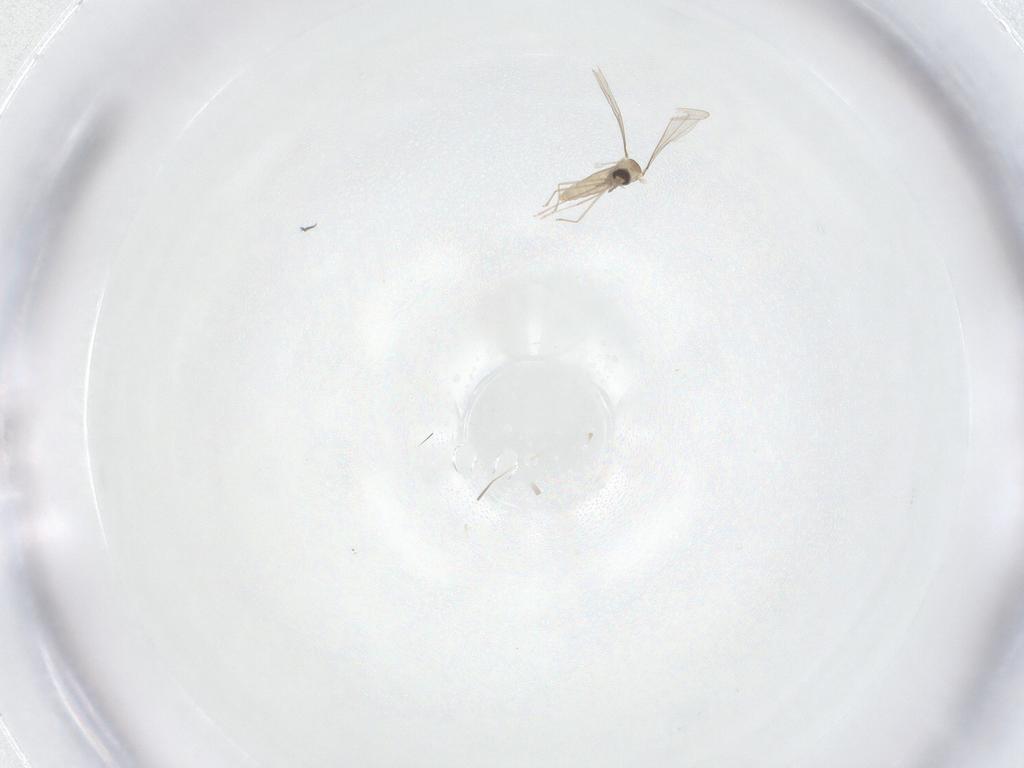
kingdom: Animalia
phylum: Arthropoda
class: Insecta
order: Diptera
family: Cecidomyiidae
